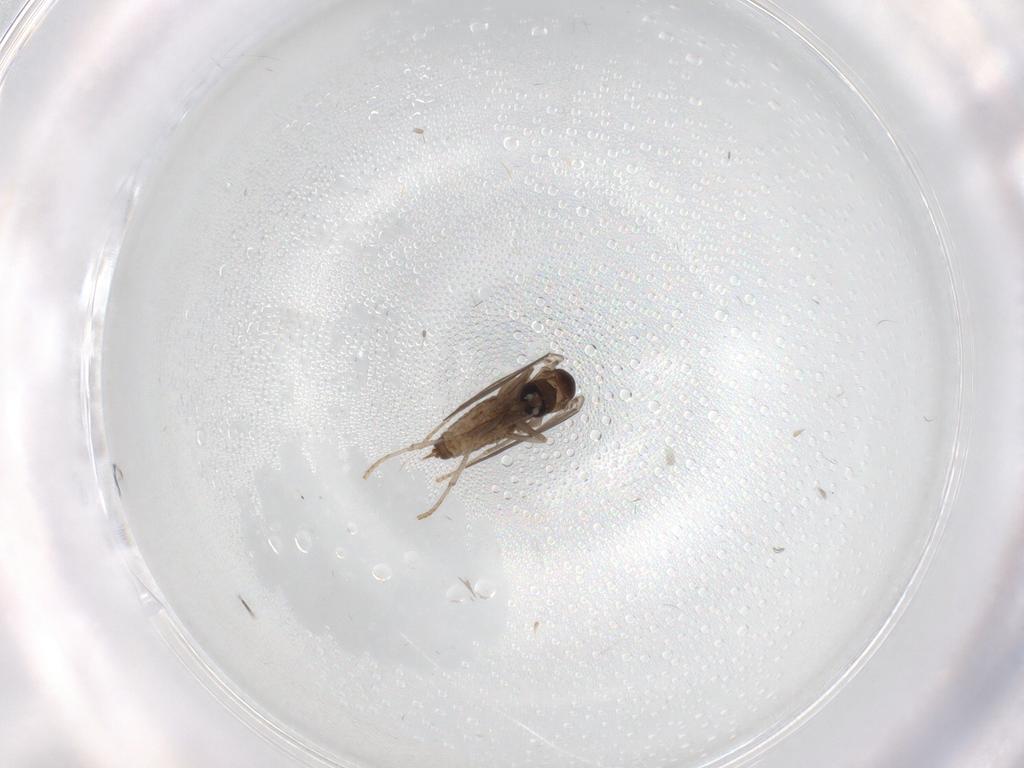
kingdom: Animalia
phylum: Arthropoda
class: Insecta
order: Diptera
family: Psychodidae
